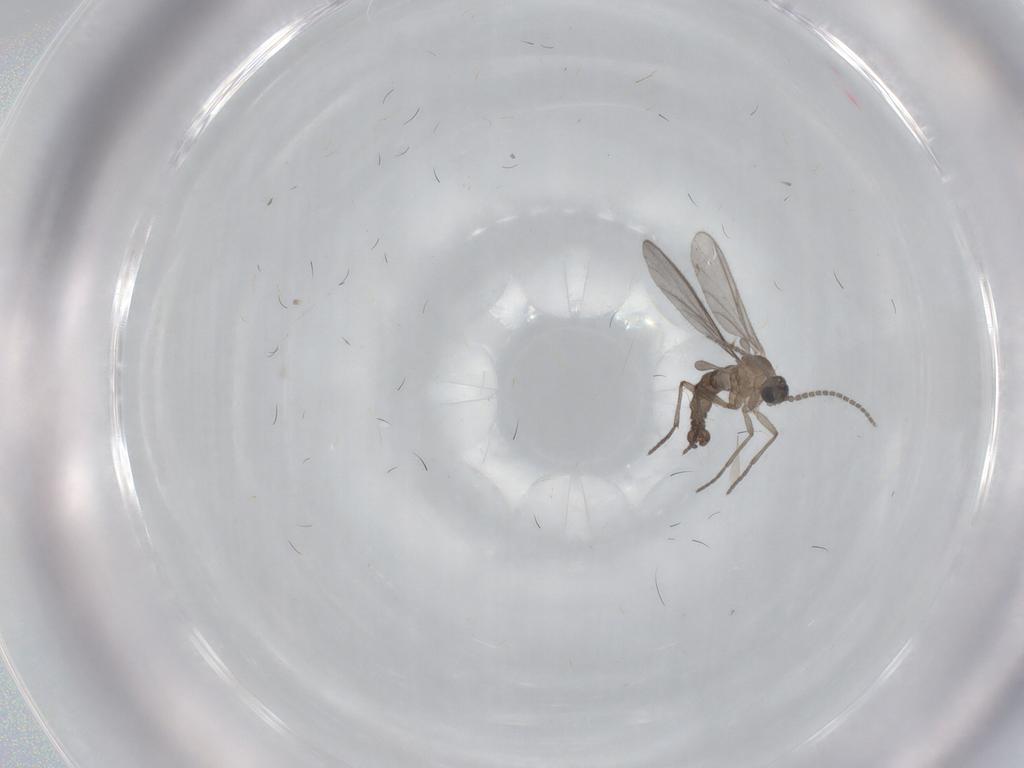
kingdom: Animalia
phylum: Arthropoda
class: Insecta
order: Diptera
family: Sciaridae
